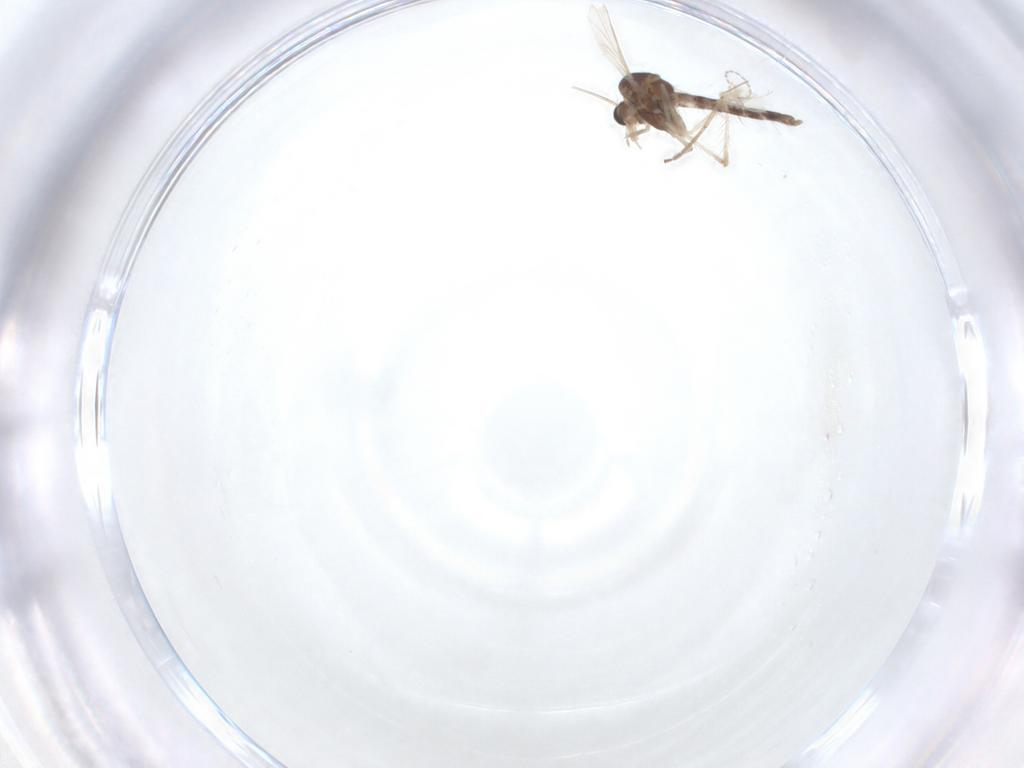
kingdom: Animalia
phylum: Arthropoda
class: Insecta
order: Diptera
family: Chironomidae
